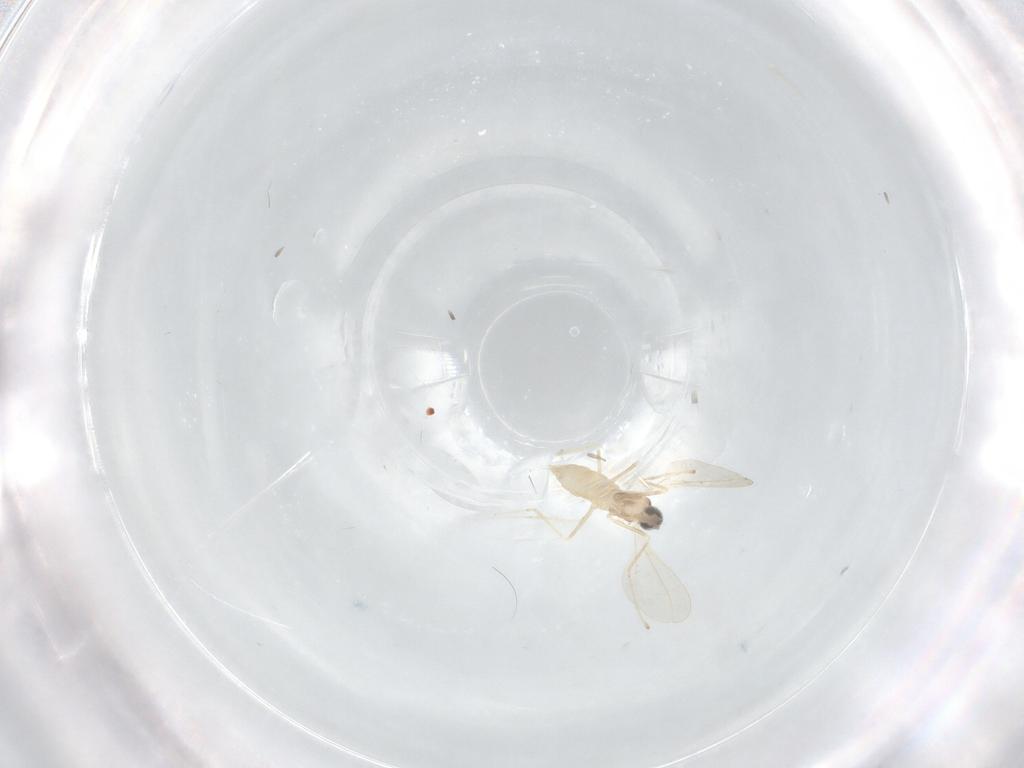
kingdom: Animalia
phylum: Arthropoda
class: Insecta
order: Diptera
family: Cecidomyiidae
